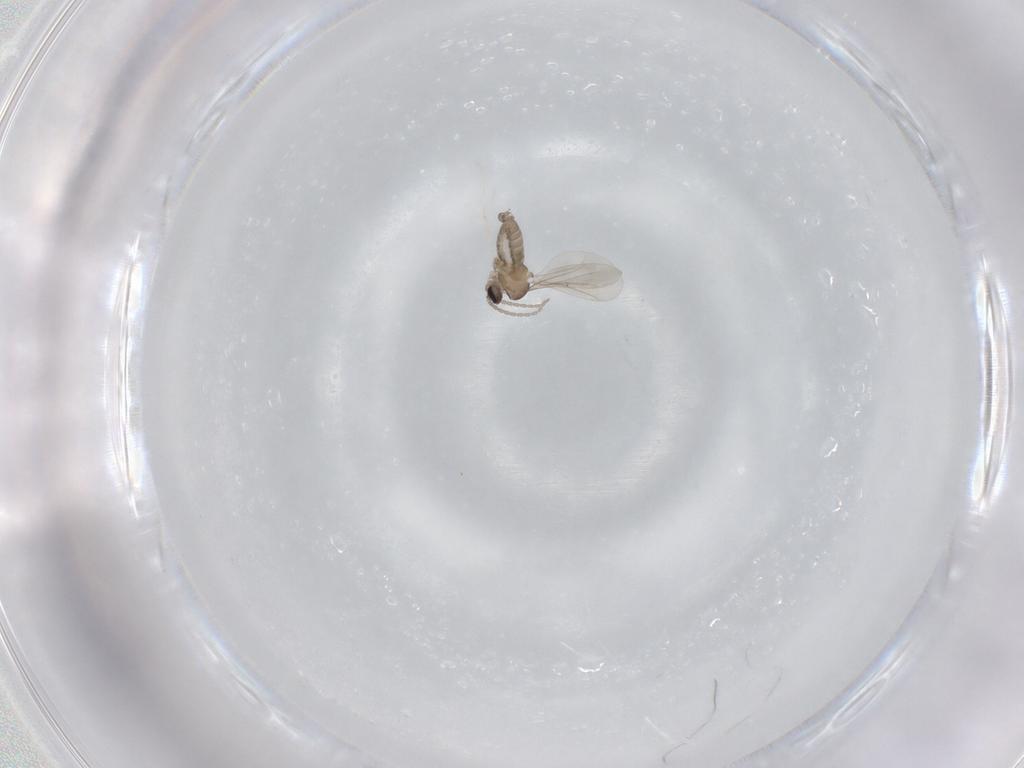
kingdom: Animalia
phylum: Arthropoda
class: Insecta
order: Diptera
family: Cecidomyiidae
